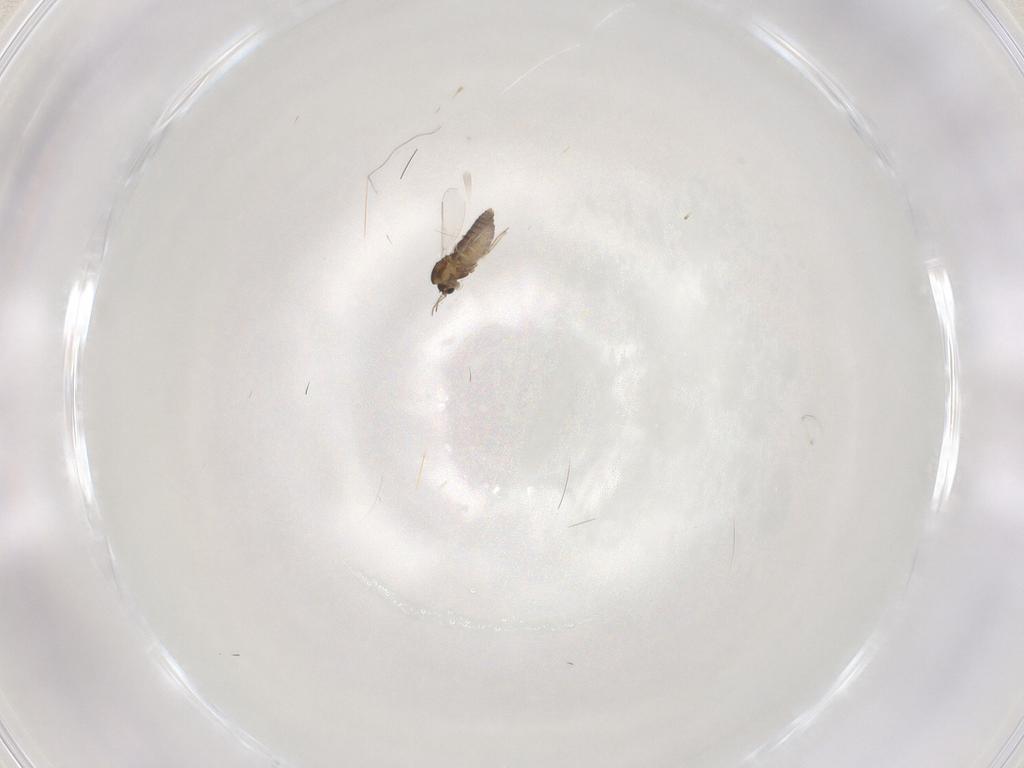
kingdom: Animalia
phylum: Arthropoda
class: Insecta
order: Diptera
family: Chironomidae
